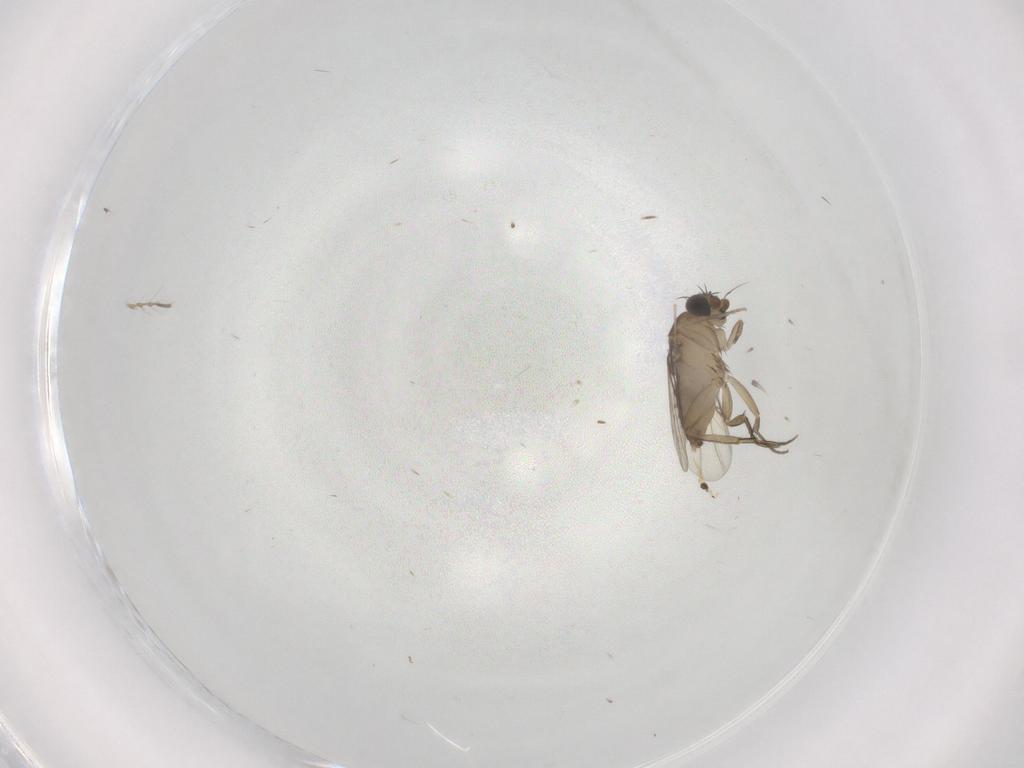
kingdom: Animalia
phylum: Arthropoda
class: Insecta
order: Diptera
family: Phoridae
